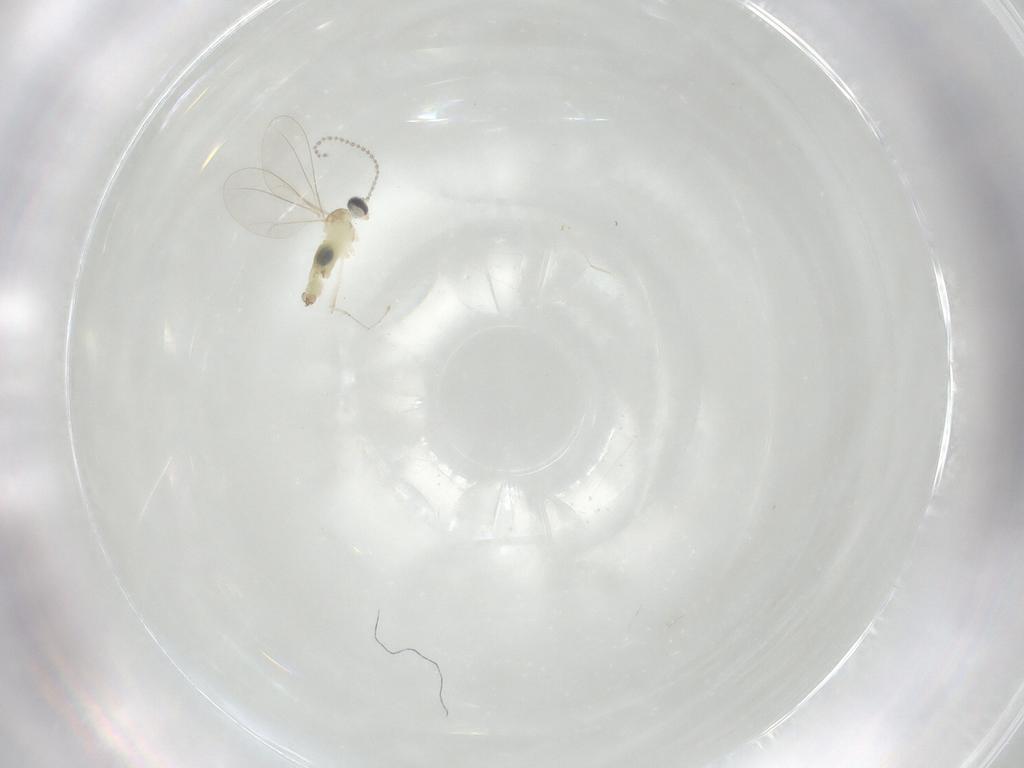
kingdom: Animalia
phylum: Arthropoda
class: Insecta
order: Diptera
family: Cecidomyiidae
